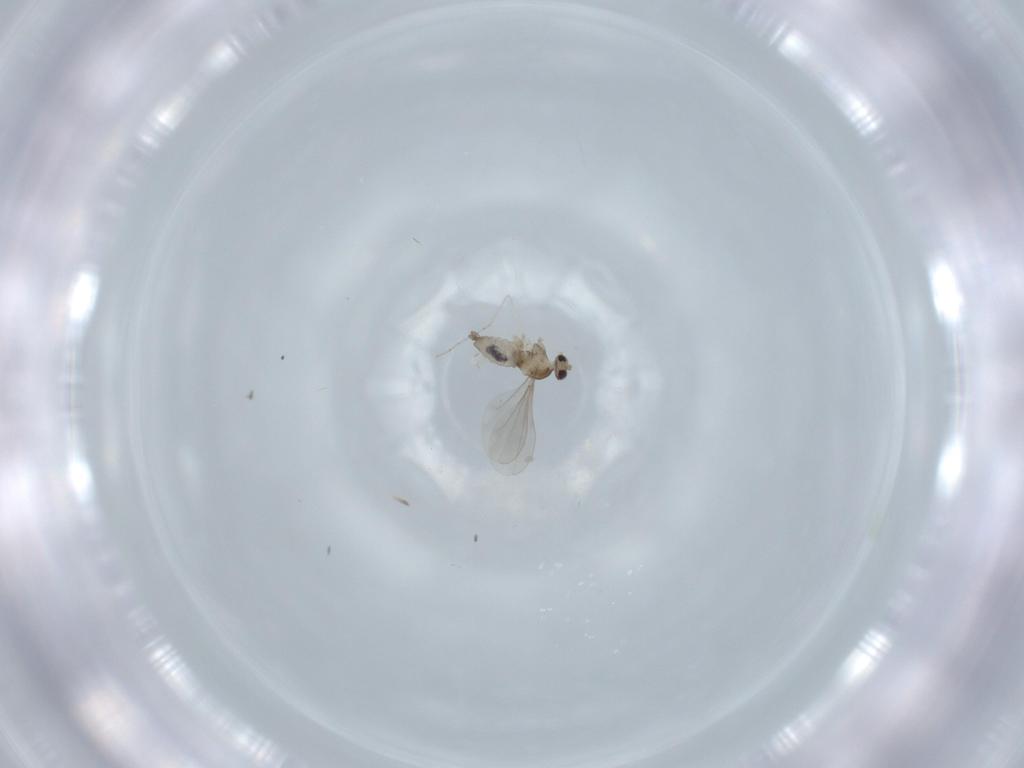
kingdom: Animalia
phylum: Arthropoda
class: Insecta
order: Diptera
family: Cecidomyiidae
